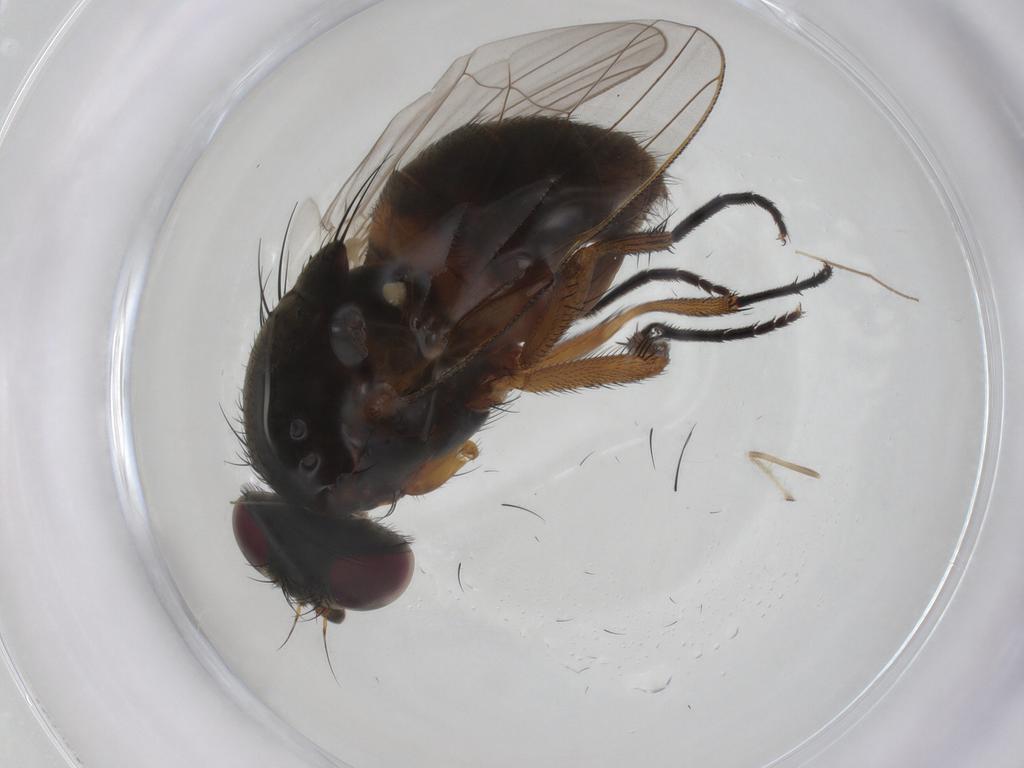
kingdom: Animalia
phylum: Arthropoda
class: Insecta
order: Diptera
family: Fannia
